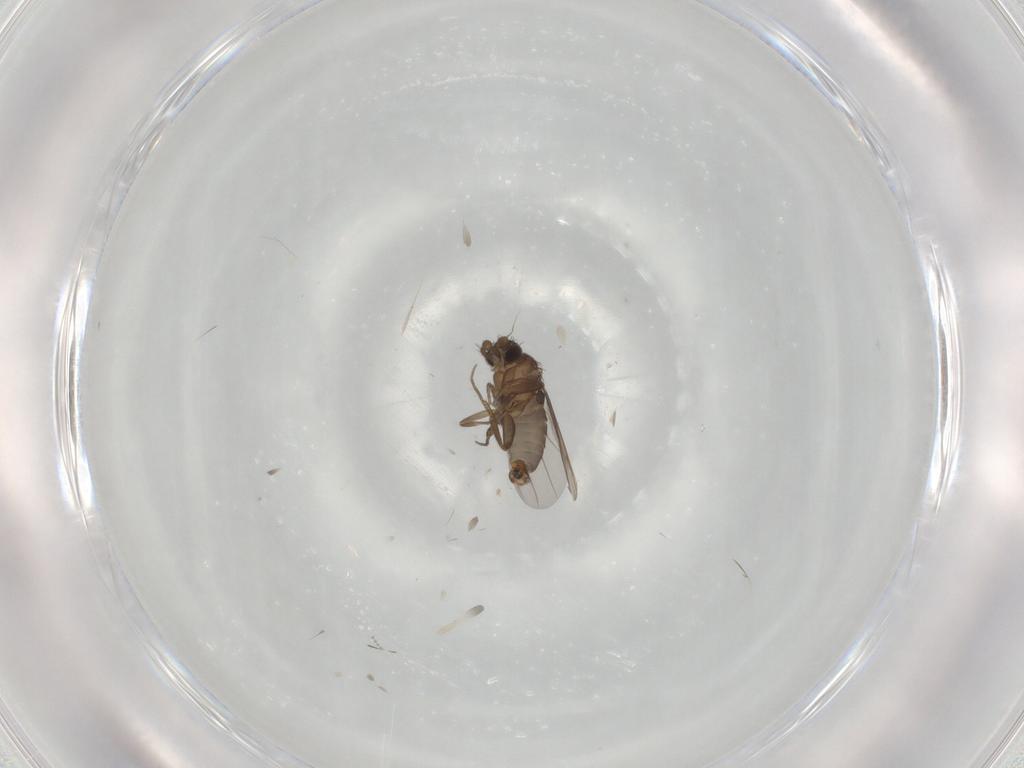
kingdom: Animalia
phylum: Arthropoda
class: Insecta
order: Diptera
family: Phoridae
